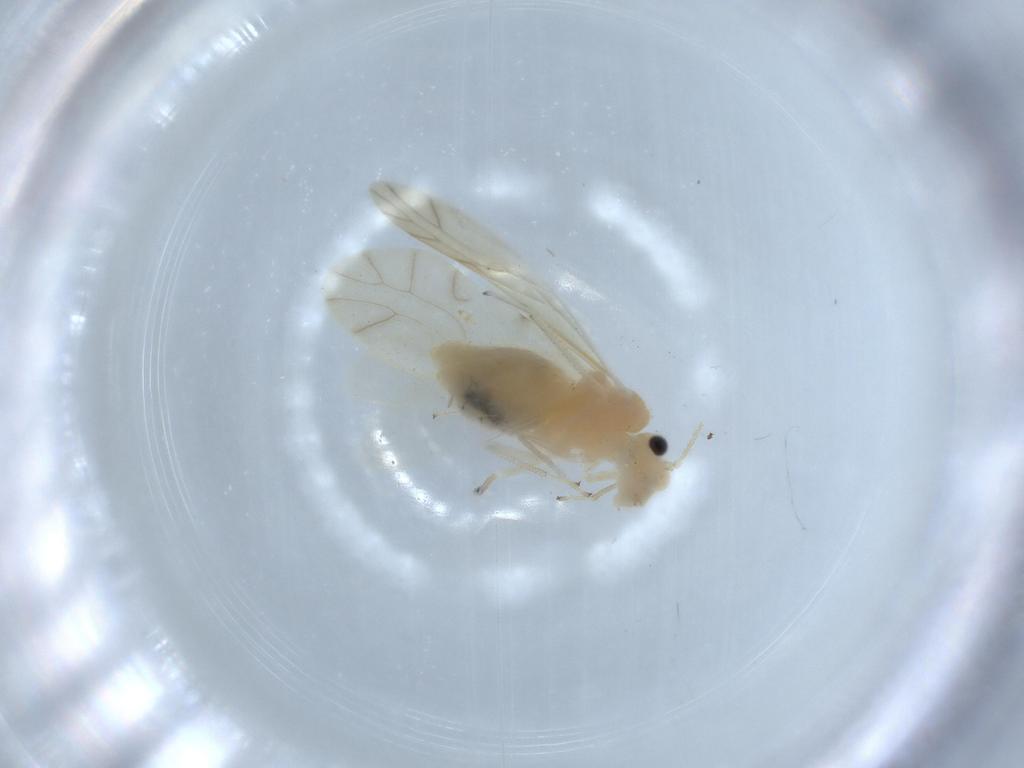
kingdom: Animalia
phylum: Arthropoda
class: Insecta
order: Psocodea
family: Caeciliusidae
